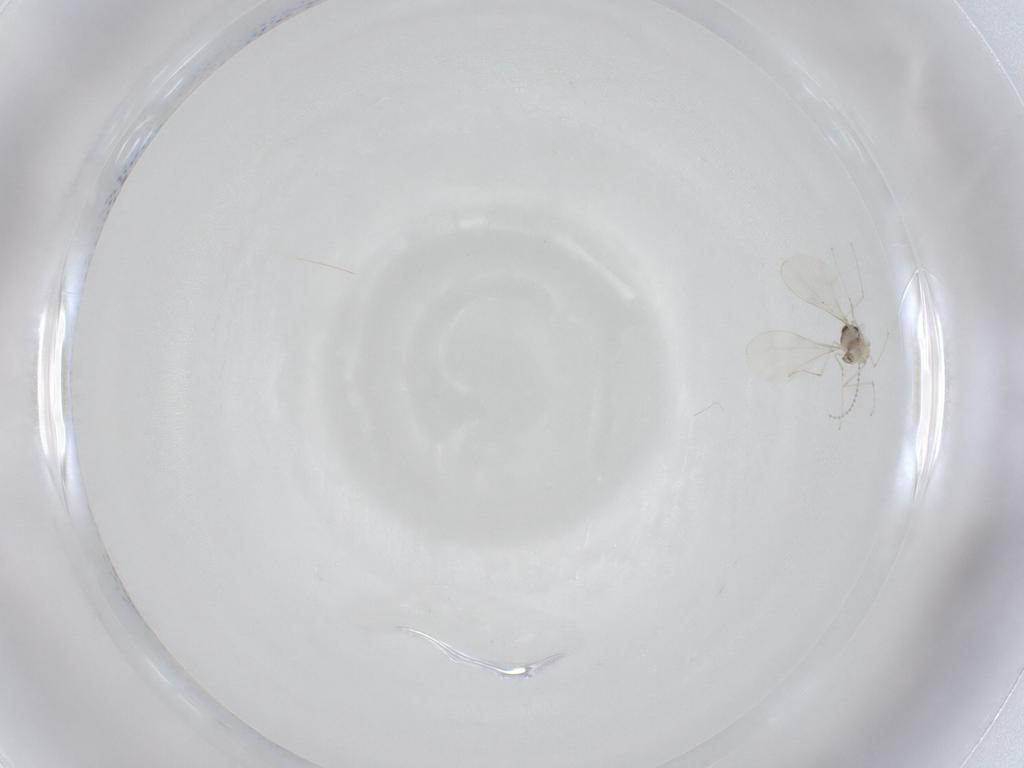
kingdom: Animalia
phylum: Arthropoda
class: Insecta
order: Diptera
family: Cecidomyiidae
